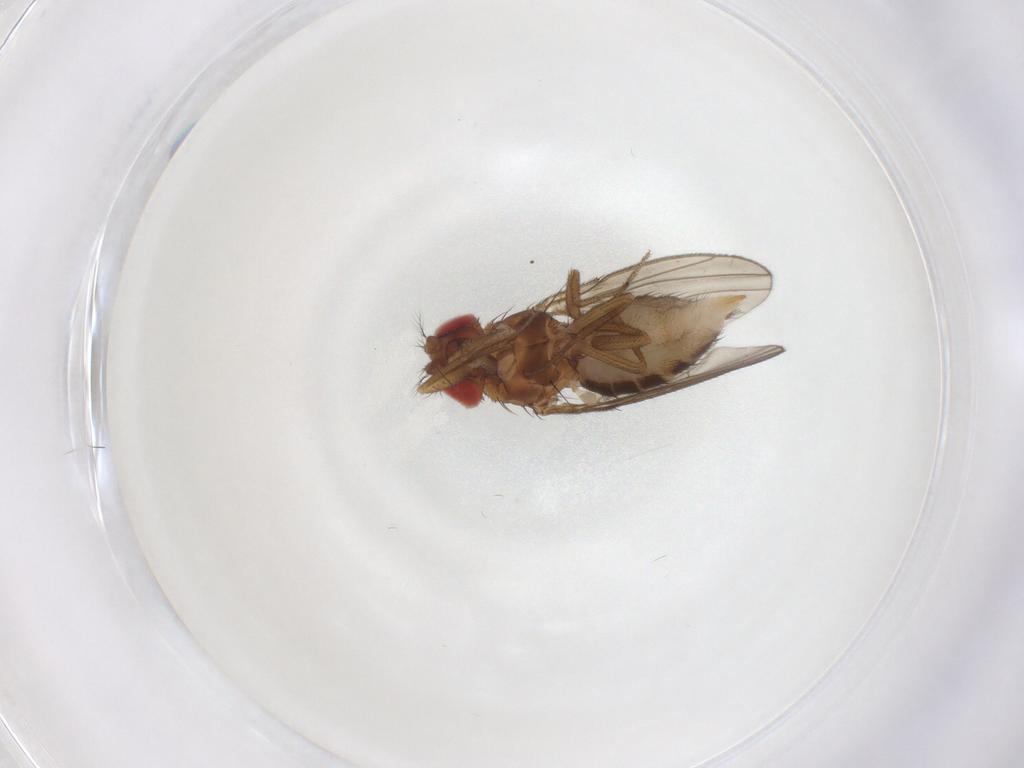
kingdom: Animalia
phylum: Arthropoda
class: Insecta
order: Diptera
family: Drosophilidae
